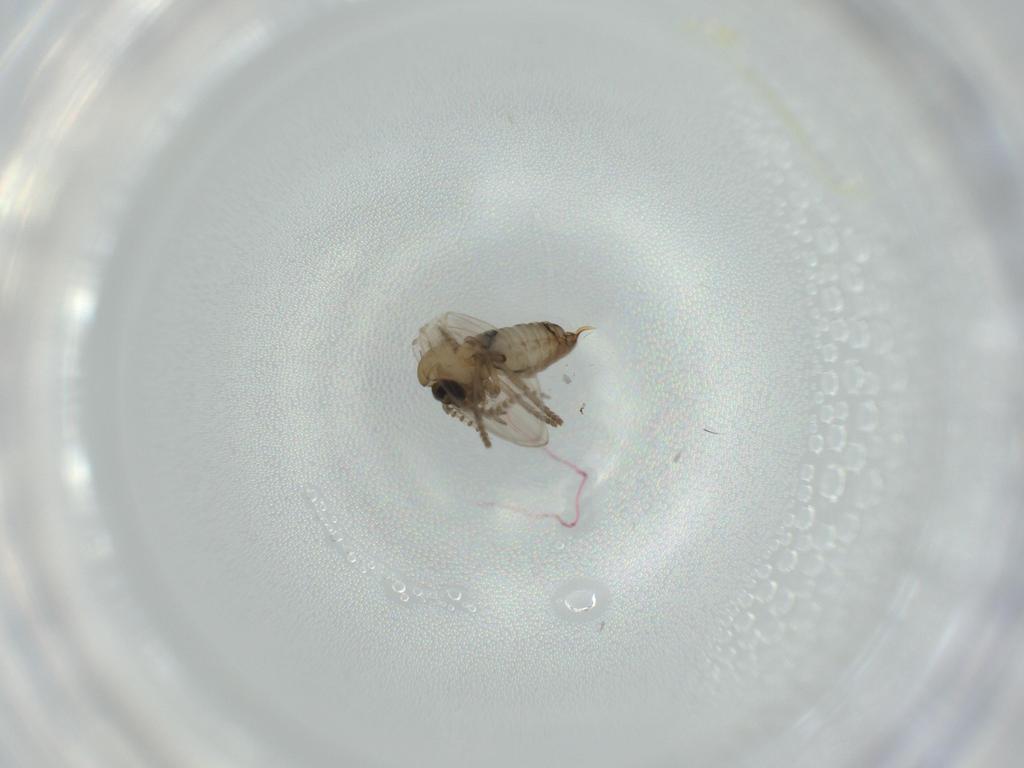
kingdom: Animalia
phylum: Arthropoda
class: Insecta
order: Diptera
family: Psychodidae
